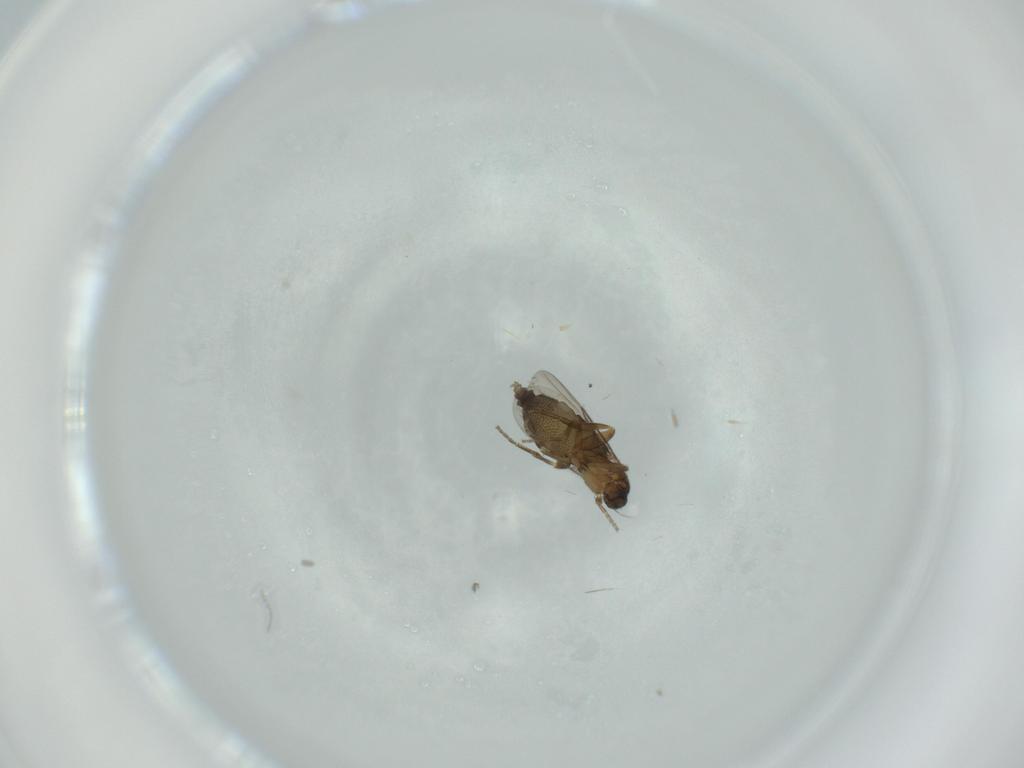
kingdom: Animalia
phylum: Arthropoda
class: Insecta
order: Diptera
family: Phoridae
